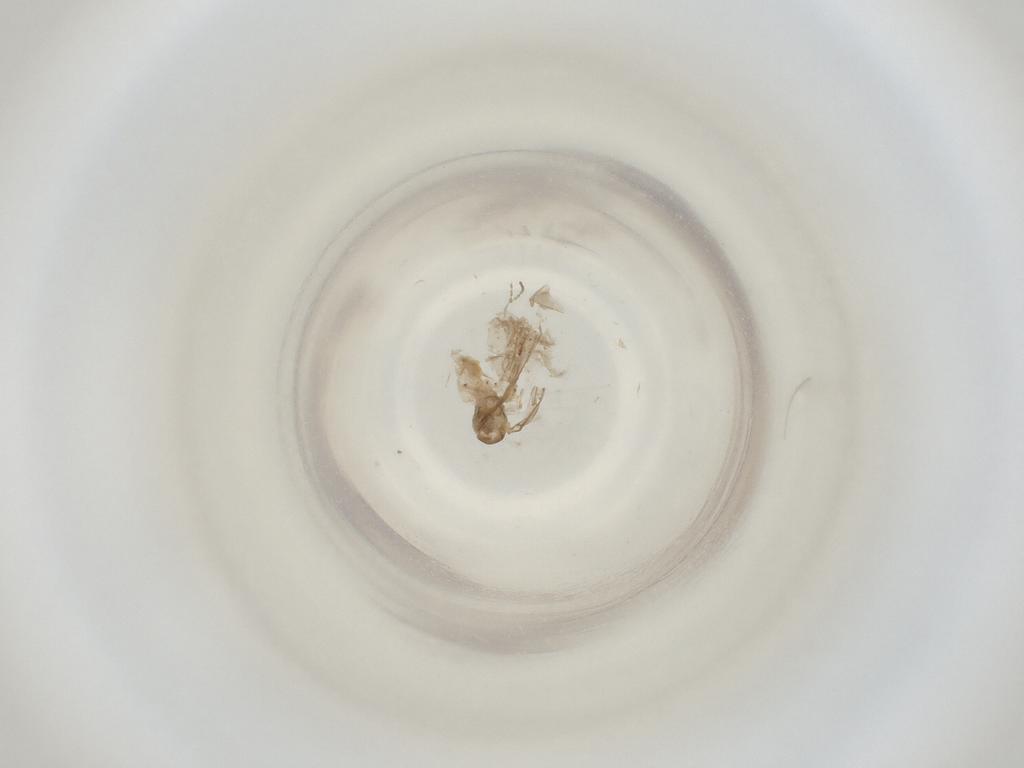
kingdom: Animalia
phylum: Arthropoda
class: Insecta
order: Diptera
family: Cecidomyiidae
